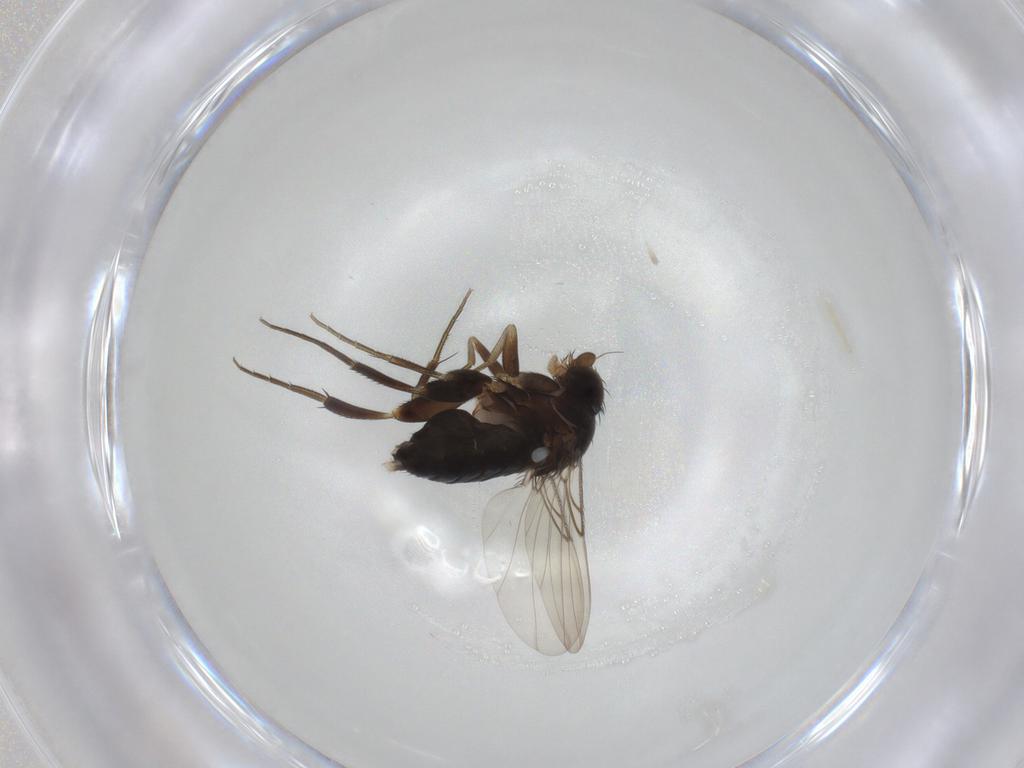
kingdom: Animalia
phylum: Arthropoda
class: Insecta
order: Diptera
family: Phoridae
